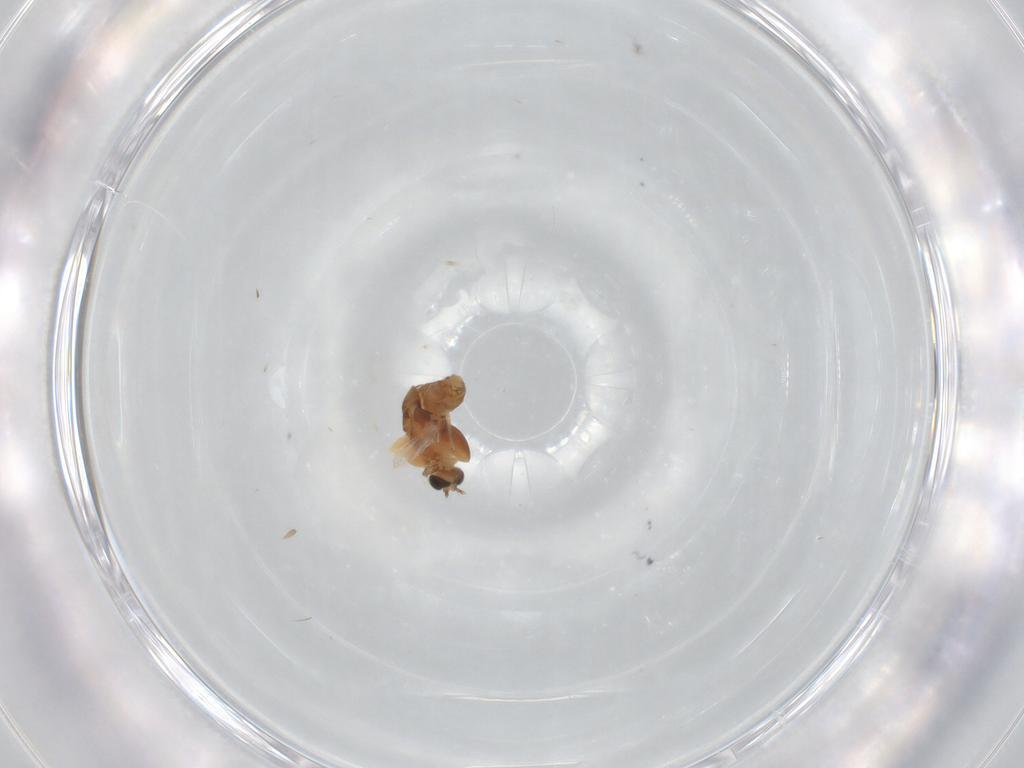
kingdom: Animalia
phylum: Arthropoda
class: Insecta
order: Diptera
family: Chironomidae
